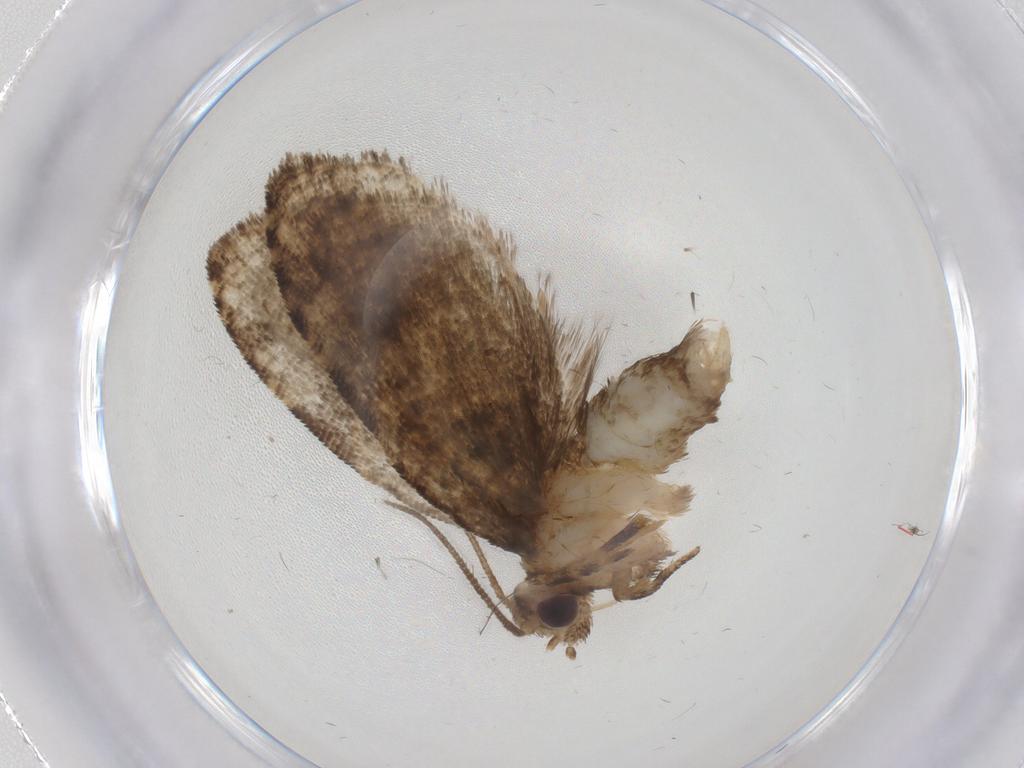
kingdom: Animalia
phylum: Arthropoda
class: Insecta
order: Lepidoptera
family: Tortricidae
